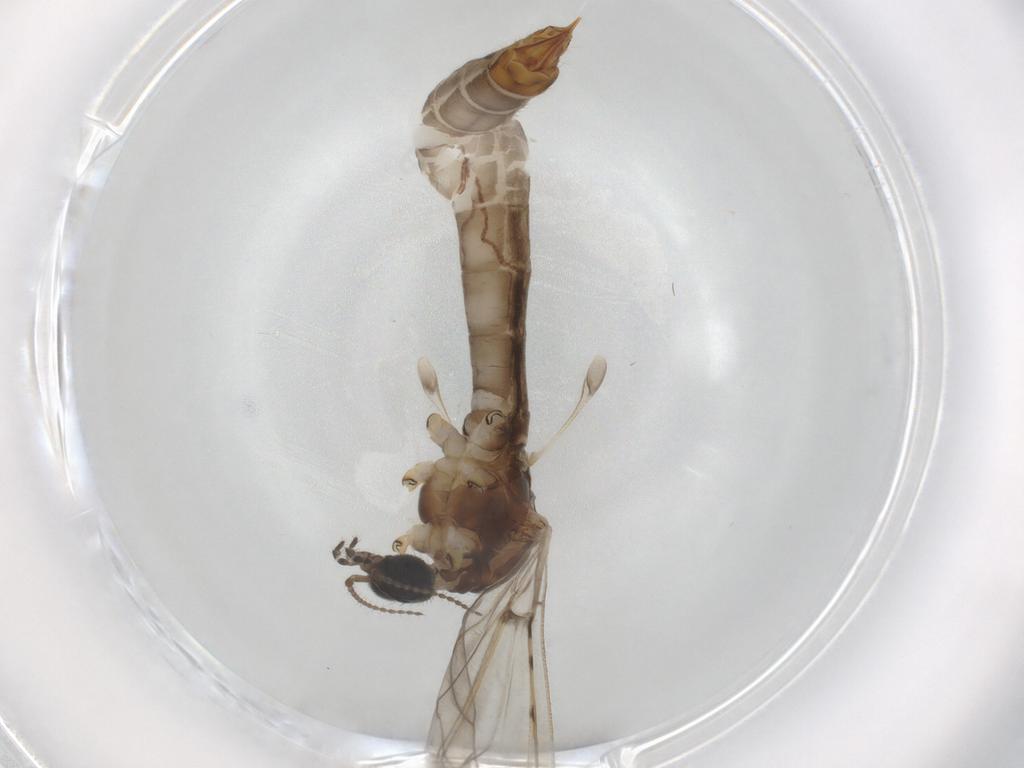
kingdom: Animalia
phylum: Arthropoda
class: Insecta
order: Diptera
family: Limoniidae
